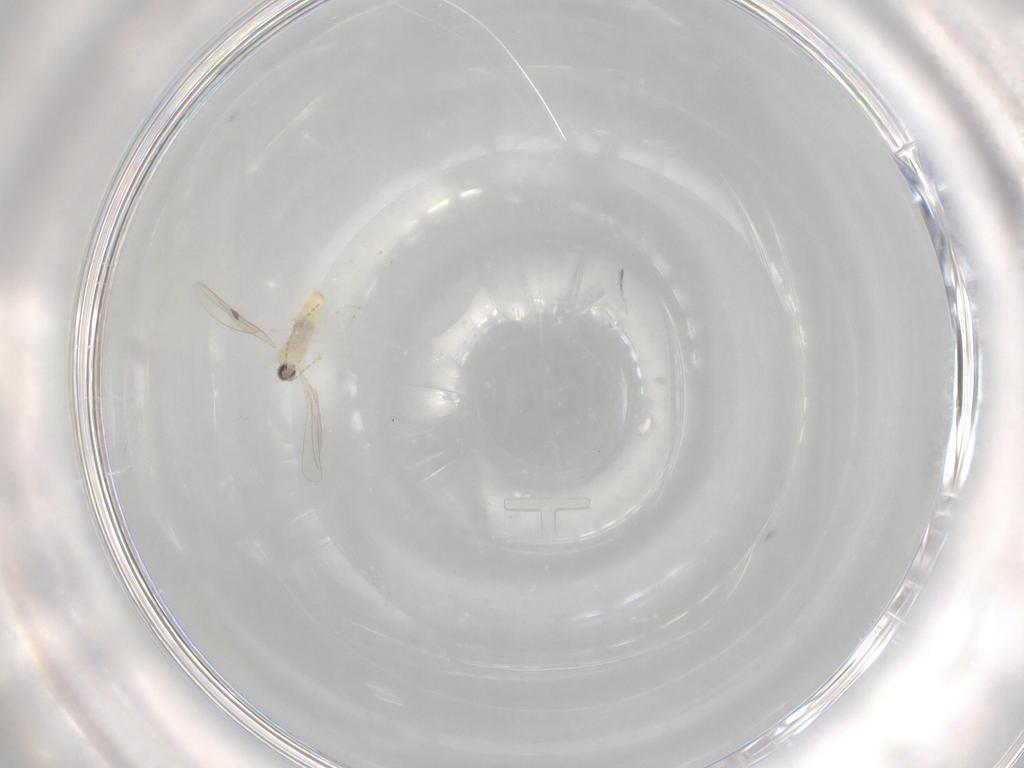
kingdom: Animalia
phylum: Arthropoda
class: Insecta
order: Diptera
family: Cecidomyiidae
